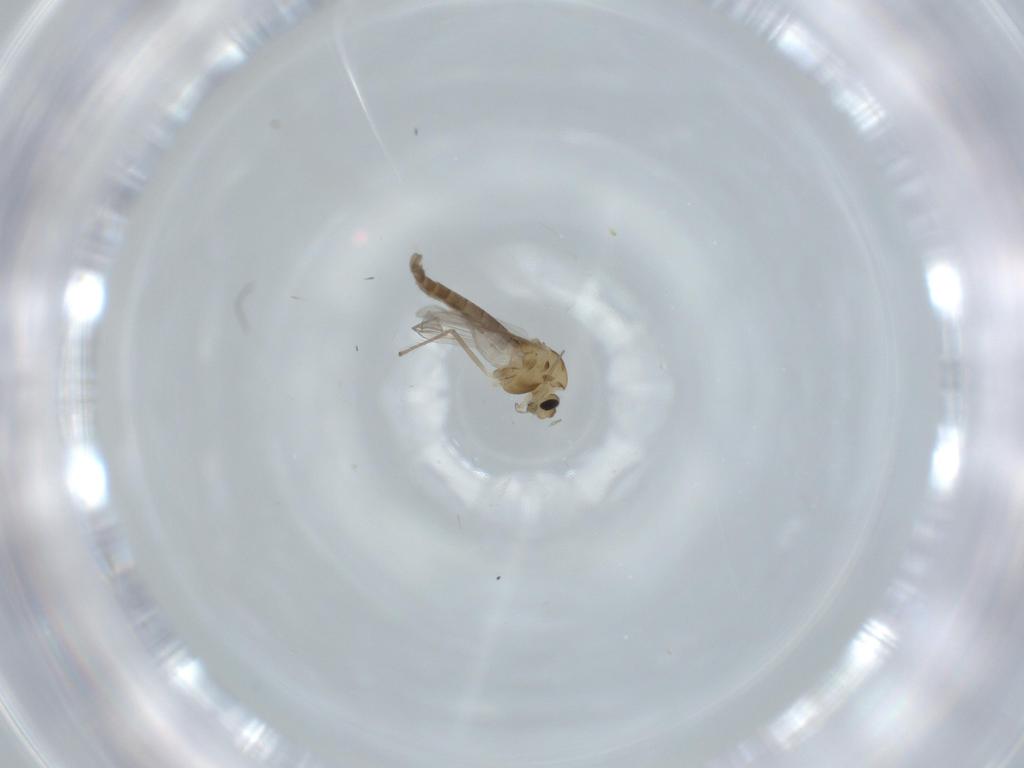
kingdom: Animalia
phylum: Arthropoda
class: Insecta
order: Diptera
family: Chironomidae
